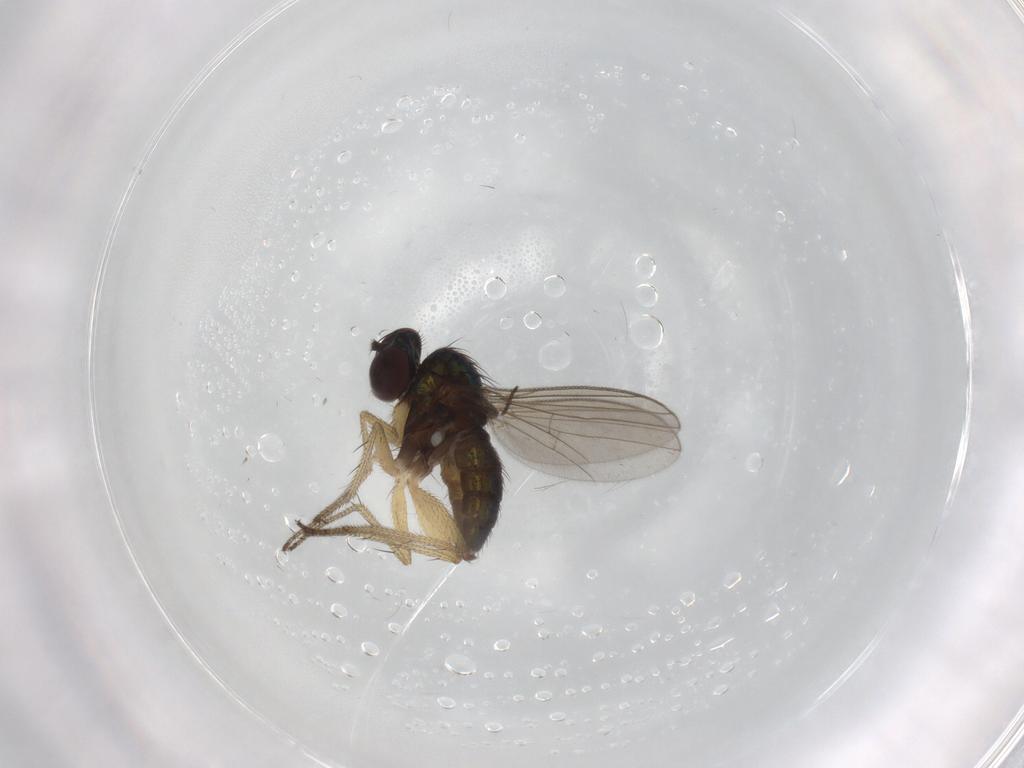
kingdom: Animalia
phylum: Arthropoda
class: Insecta
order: Diptera
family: Dolichopodidae
